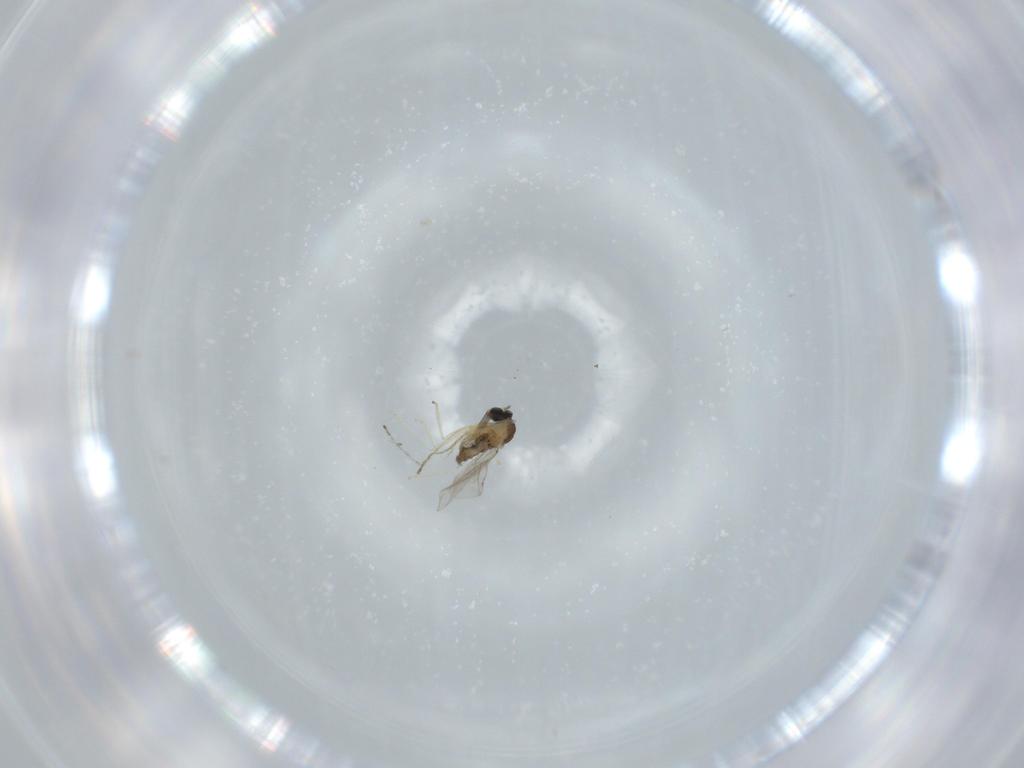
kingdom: Animalia
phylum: Arthropoda
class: Insecta
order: Diptera
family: Cecidomyiidae
